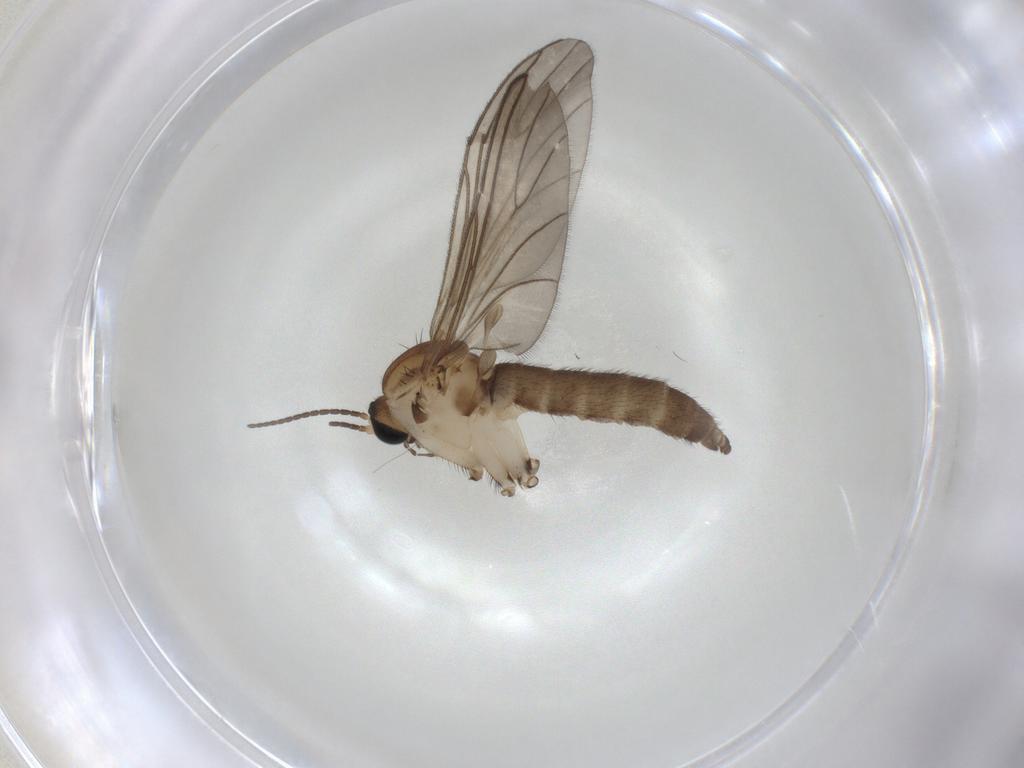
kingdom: Animalia
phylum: Arthropoda
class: Insecta
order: Diptera
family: Sciaridae
